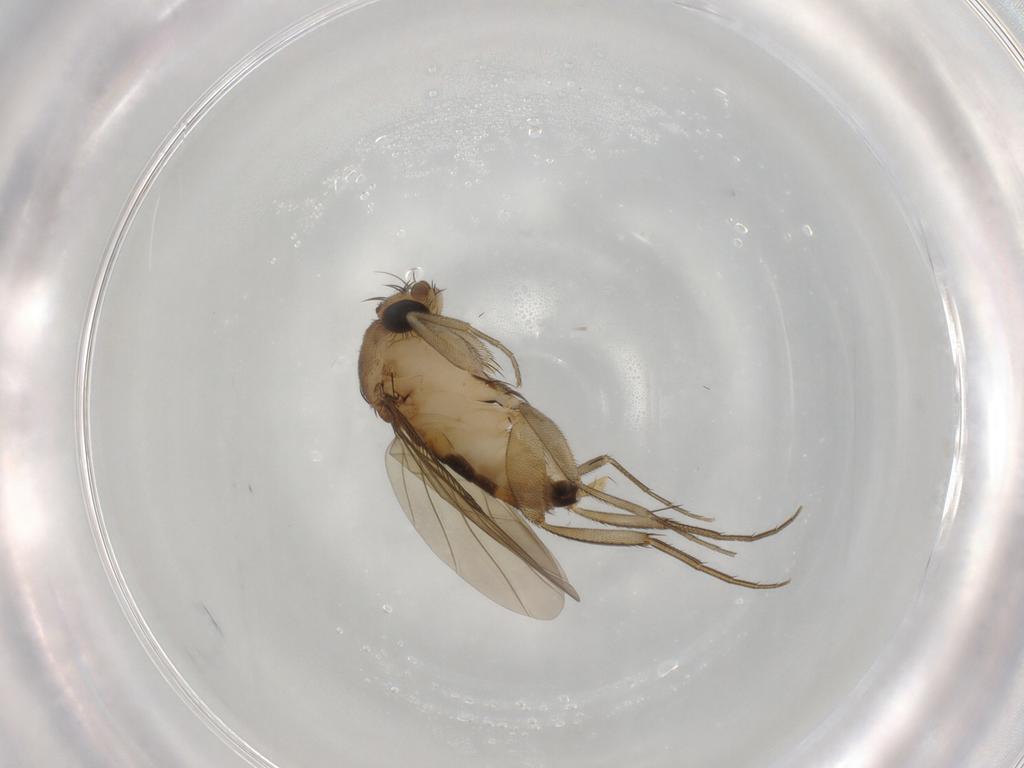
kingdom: Animalia
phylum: Arthropoda
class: Insecta
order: Diptera
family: Phoridae
